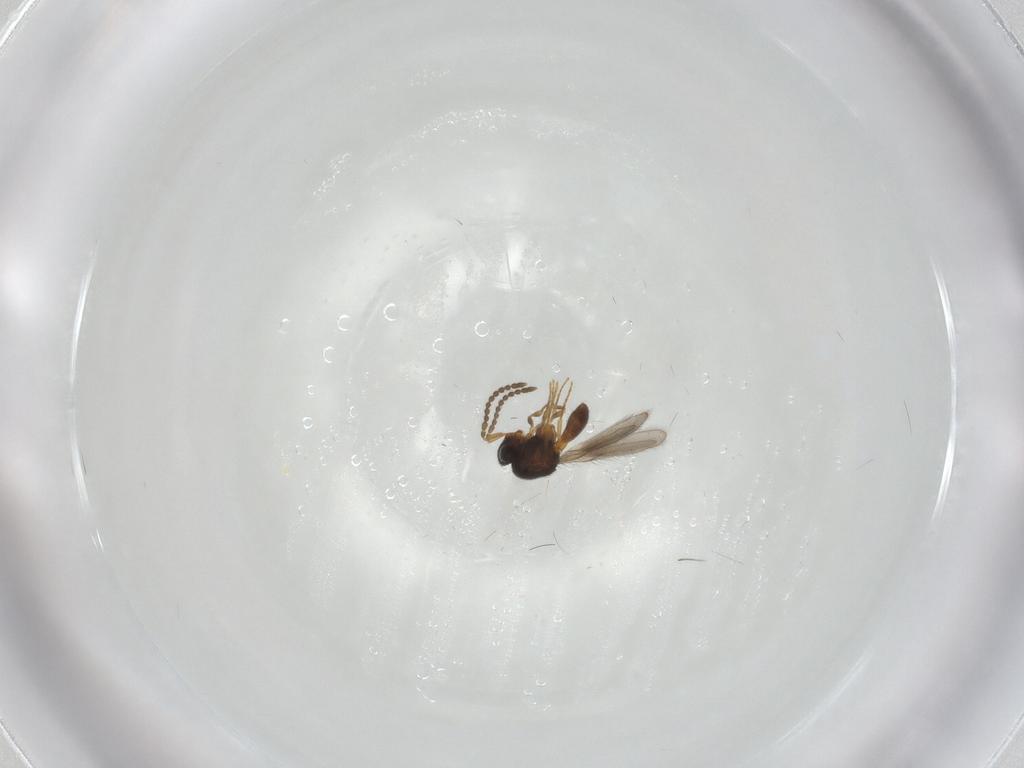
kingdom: Animalia
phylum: Arthropoda
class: Insecta
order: Hymenoptera
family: Scelionidae
